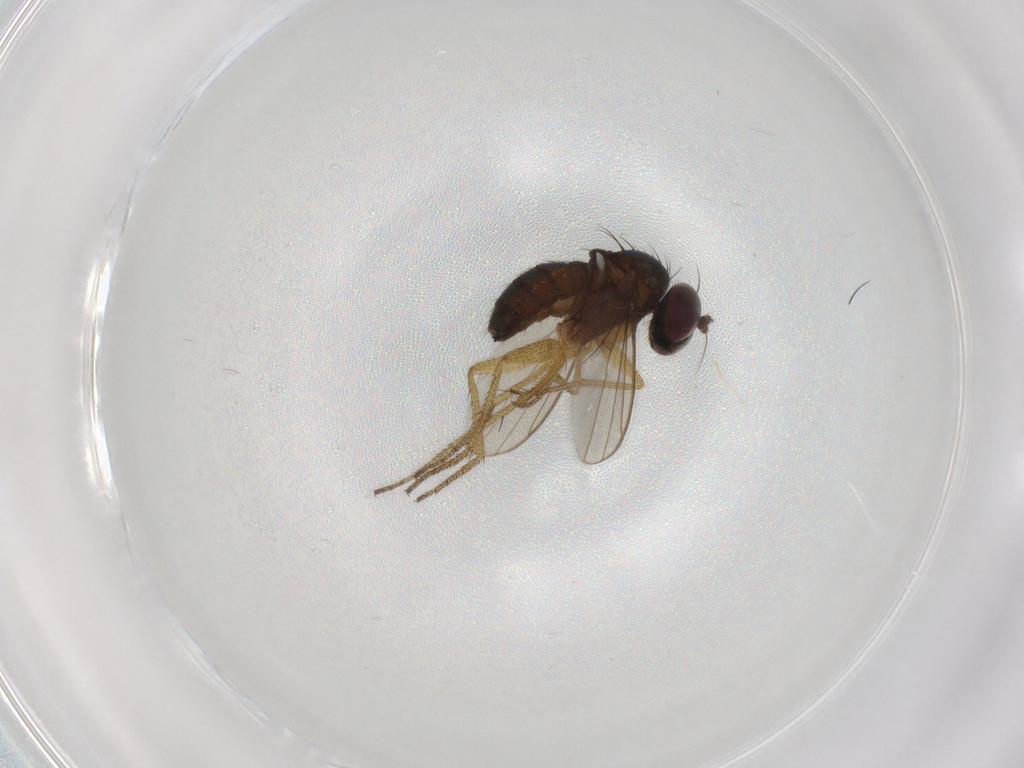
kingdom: Animalia
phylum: Arthropoda
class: Insecta
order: Diptera
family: Dolichopodidae
